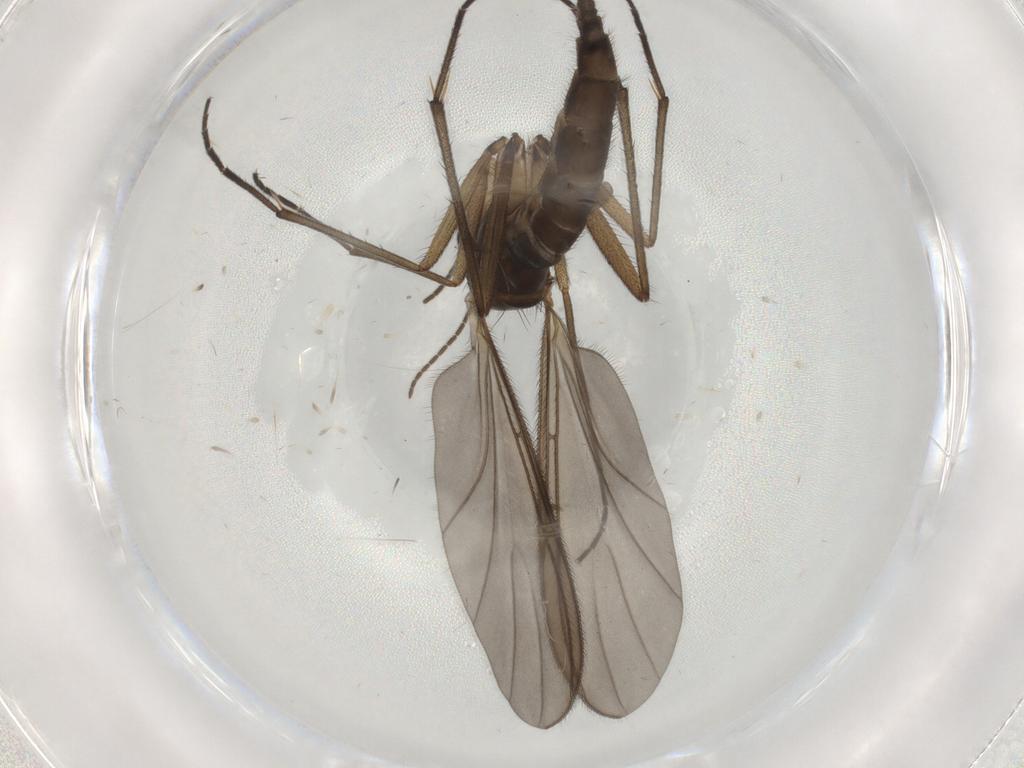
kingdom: Animalia
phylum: Arthropoda
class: Insecta
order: Diptera
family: Sciaridae
